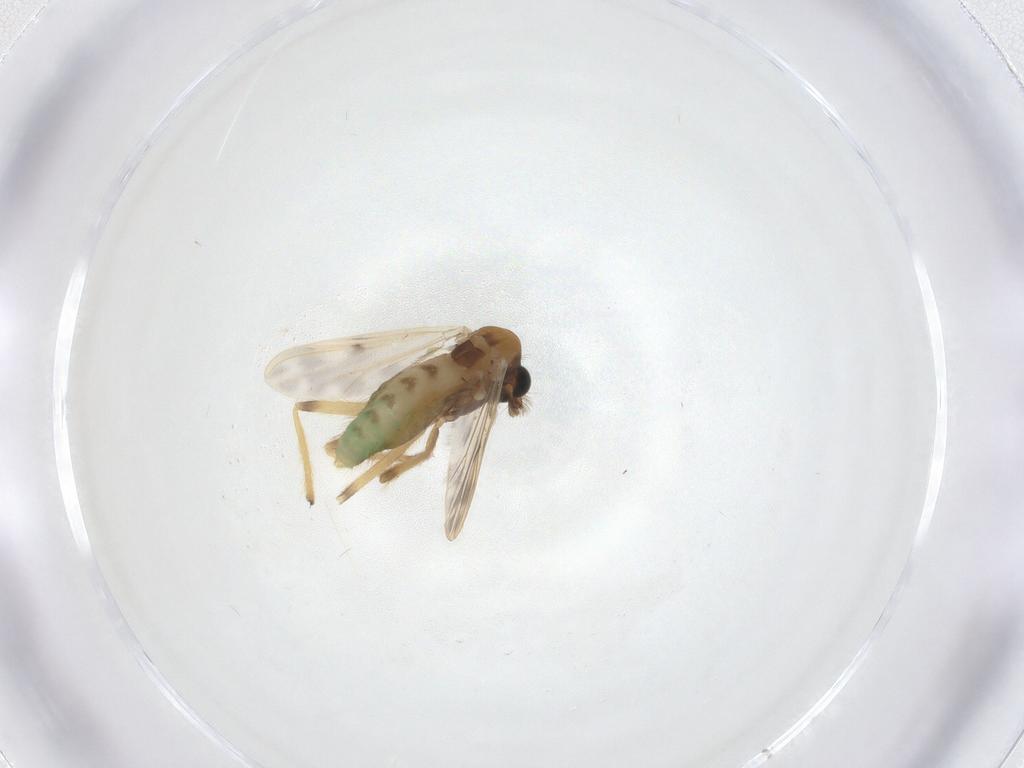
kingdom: Animalia
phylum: Arthropoda
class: Insecta
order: Diptera
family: Chironomidae
